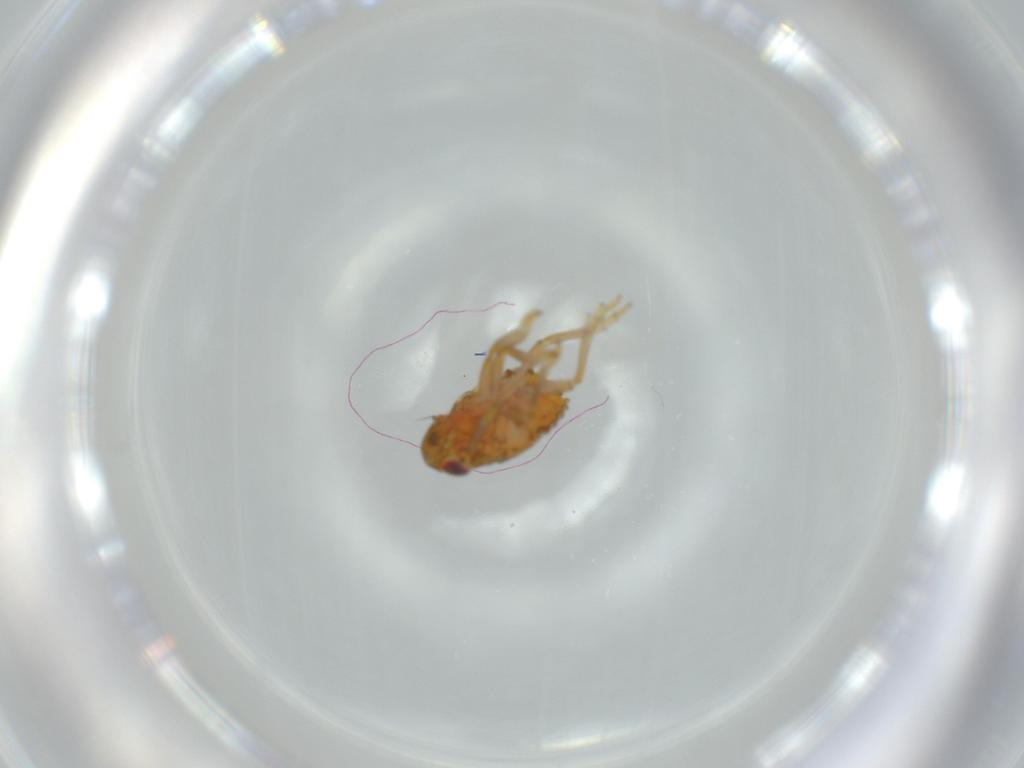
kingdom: Animalia
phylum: Arthropoda
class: Insecta
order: Hemiptera
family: Issidae
